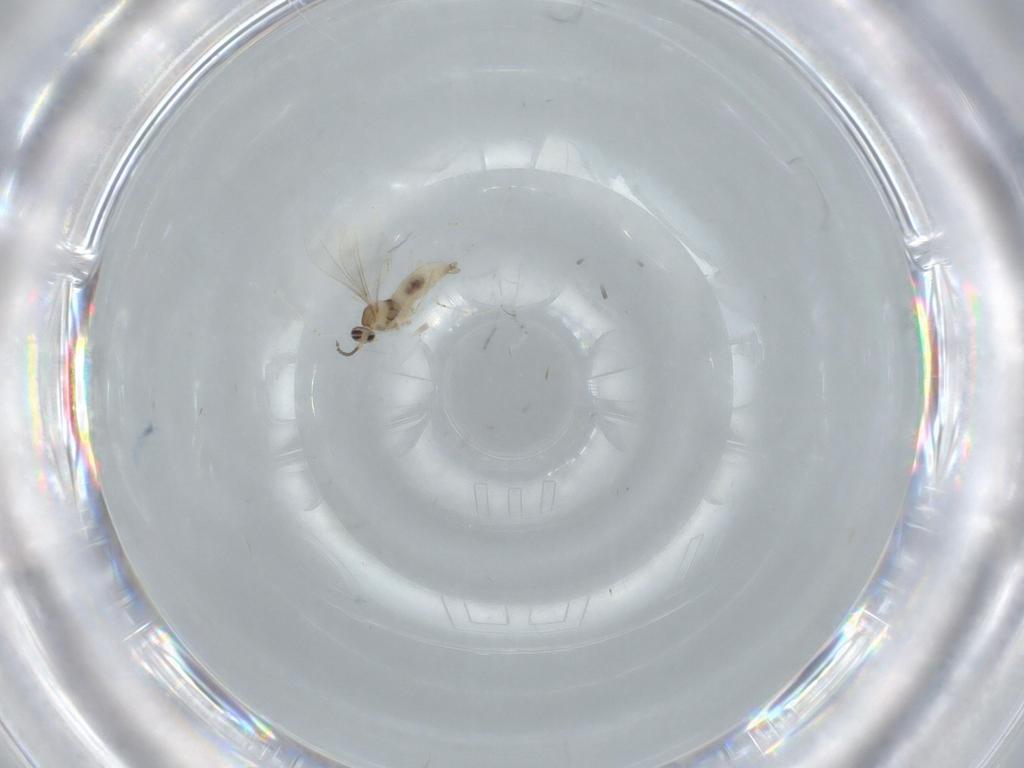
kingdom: Animalia
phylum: Arthropoda
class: Insecta
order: Diptera
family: Cecidomyiidae
